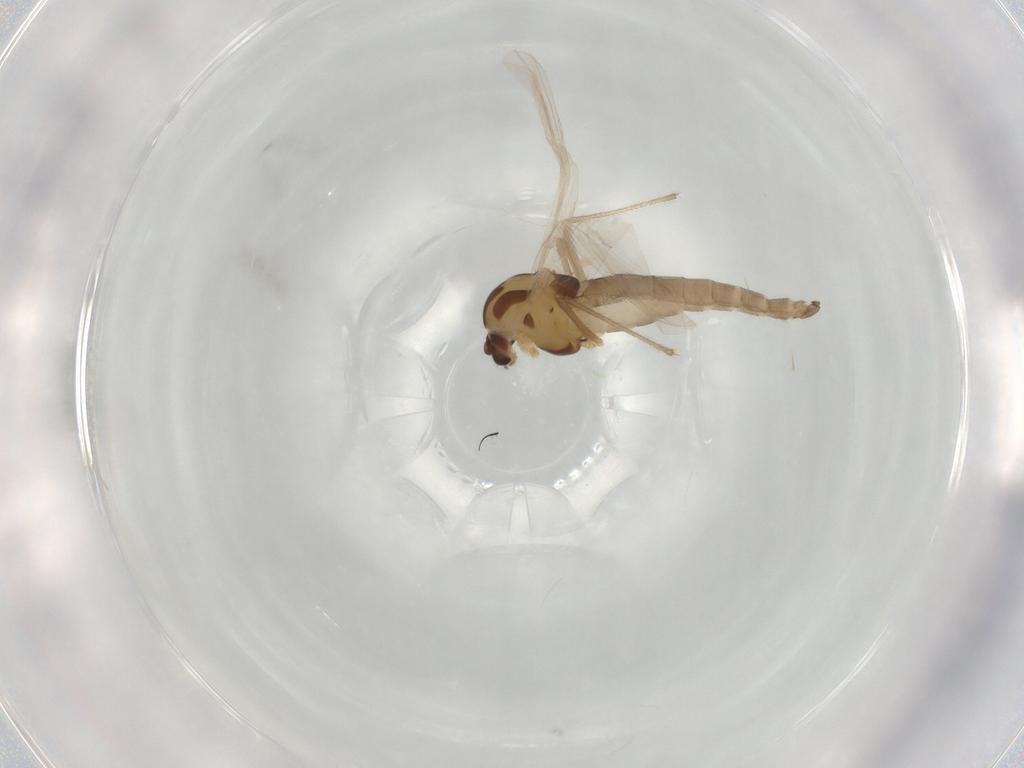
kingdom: Animalia
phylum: Arthropoda
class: Insecta
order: Diptera
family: Chironomidae
